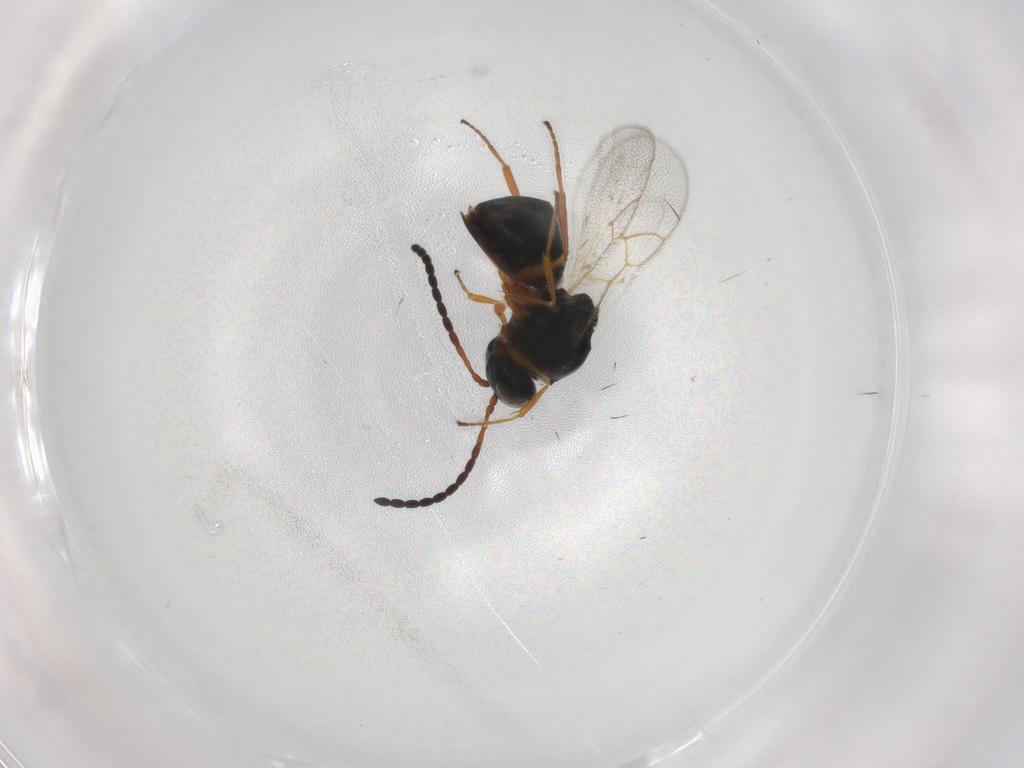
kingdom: Animalia
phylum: Arthropoda
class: Insecta
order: Hymenoptera
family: Figitidae
